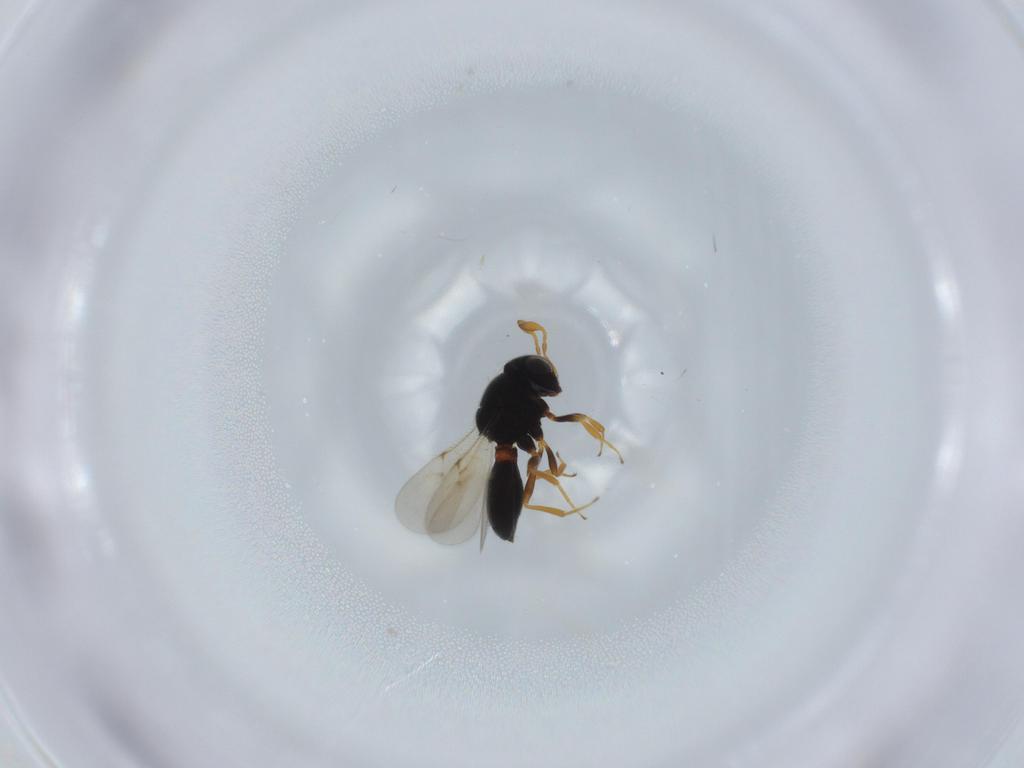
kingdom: Animalia
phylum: Arthropoda
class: Insecta
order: Hymenoptera
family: Scelionidae
